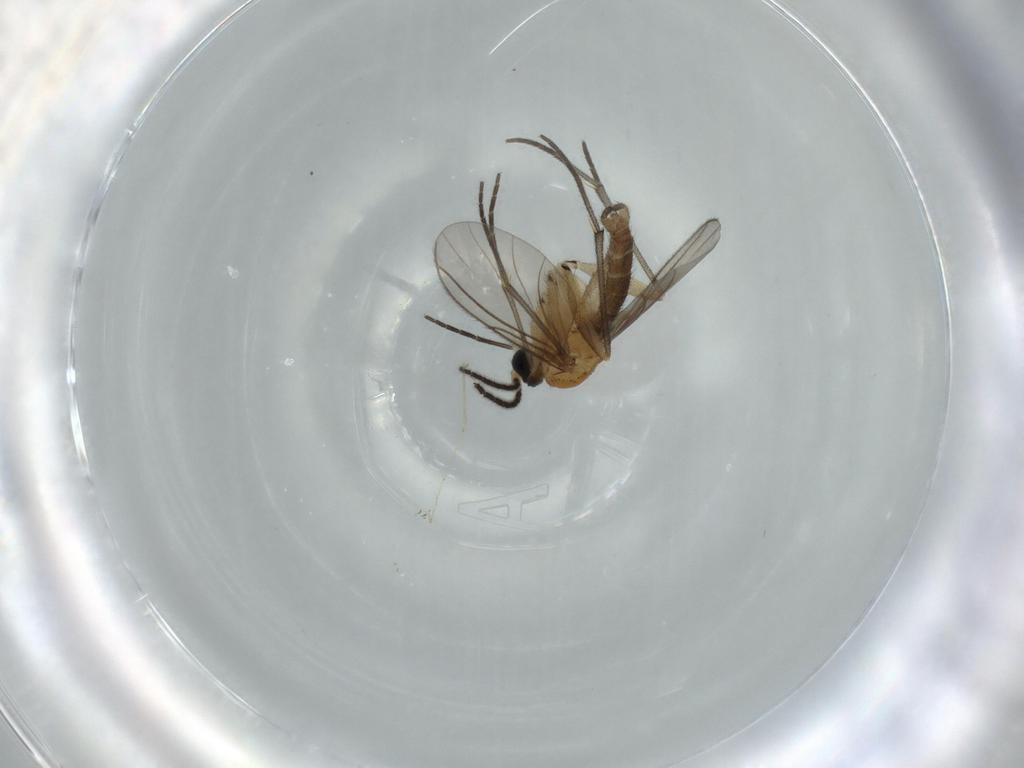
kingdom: Animalia
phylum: Arthropoda
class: Insecta
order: Diptera
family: Sciaridae
